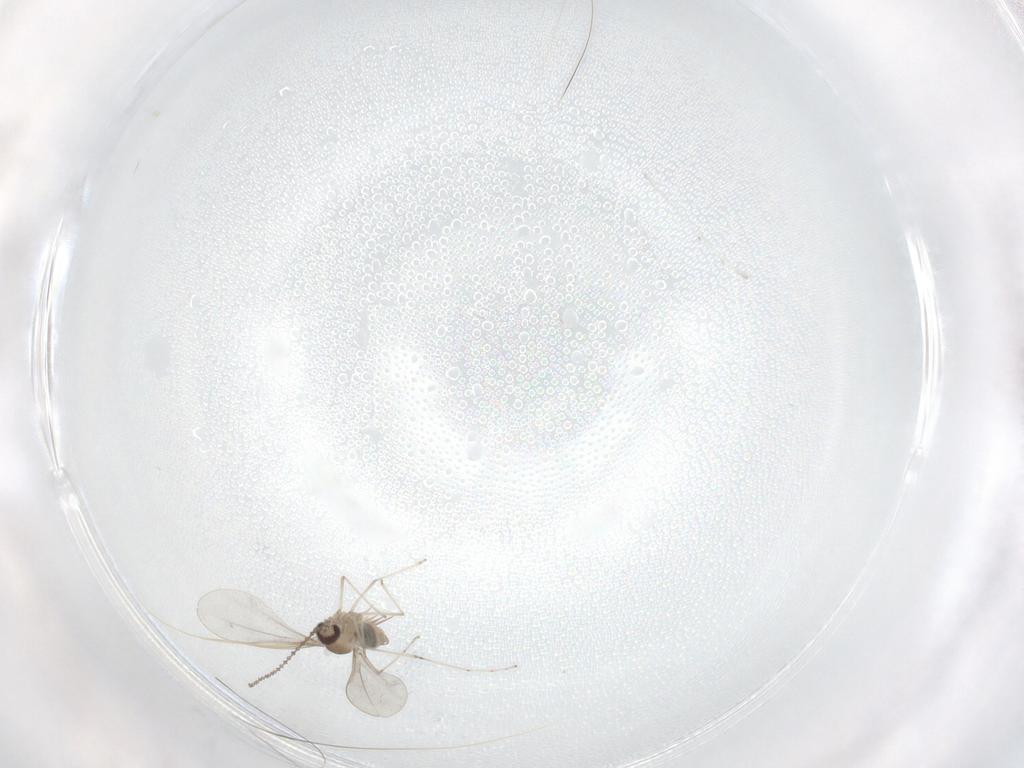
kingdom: Animalia
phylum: Arthropoda
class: Insecta
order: Diptera
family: Cecidomyiidae
